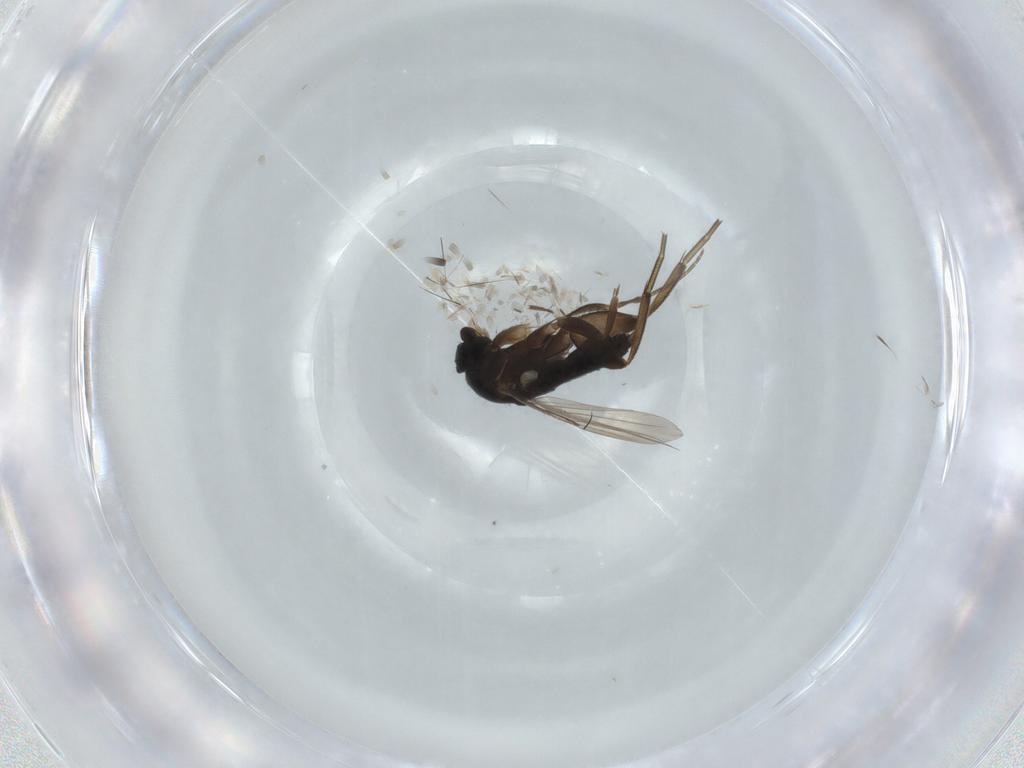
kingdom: Animalia
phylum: Arthropoda
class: Insecta
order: Diptera
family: Phoridae
